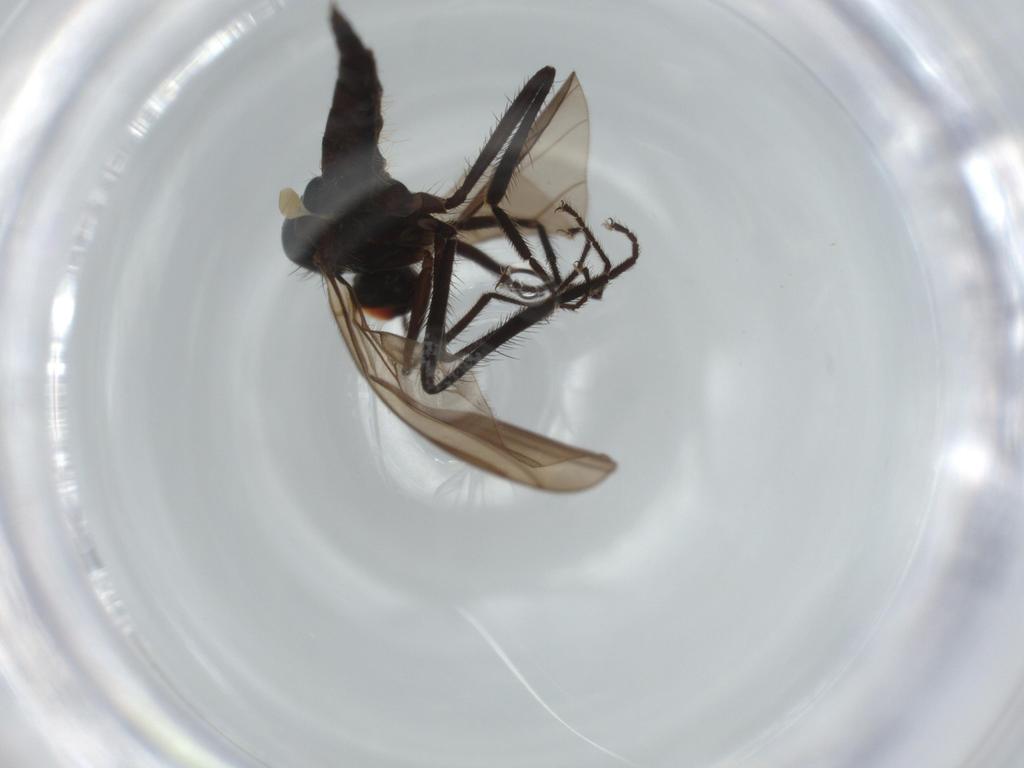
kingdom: Animalia
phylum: Arthropoda
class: Insecta
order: Diptera
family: Hybotidae
